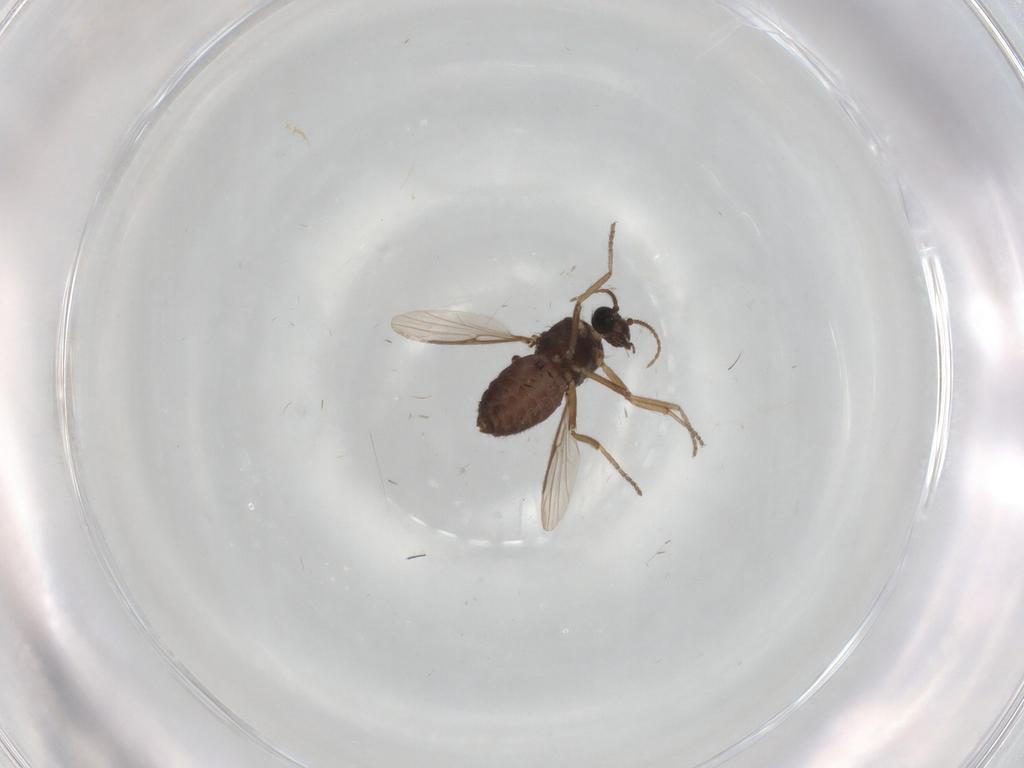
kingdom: Animalia
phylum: Arthropoda
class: Insecta
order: Diptera
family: Ceratopogonidae
